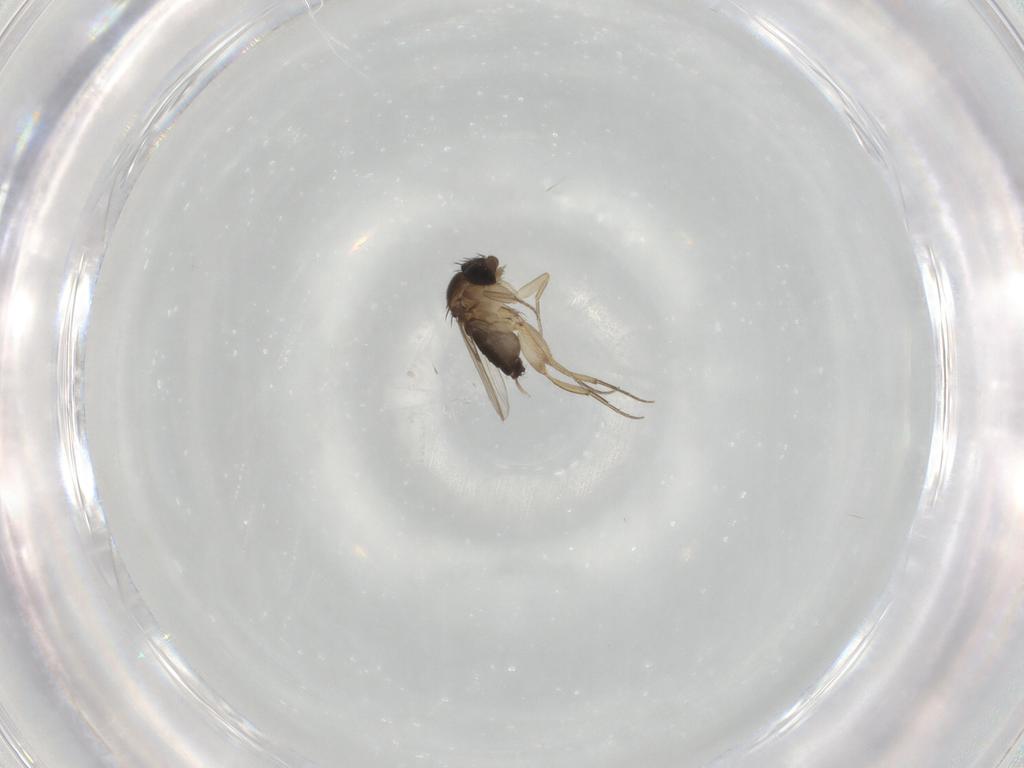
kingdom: Animalia
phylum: Arthropoda
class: Insecta
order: Diptera
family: Phoridae
